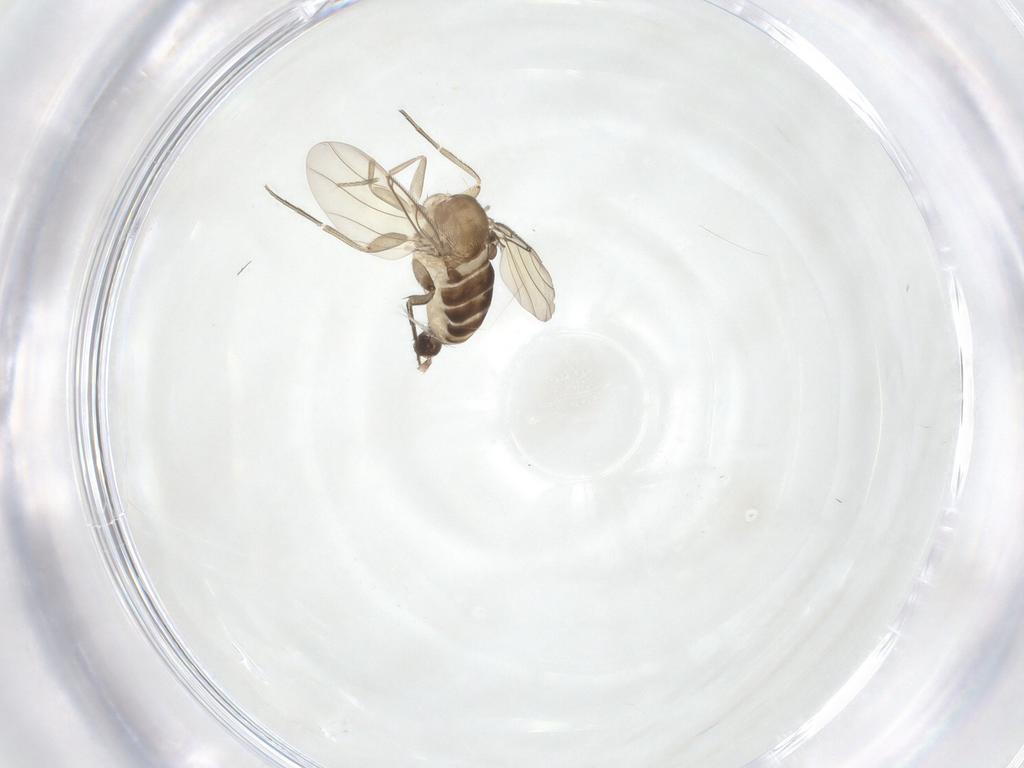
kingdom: Animalia
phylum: Arthropoda
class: Insecta
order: Diptera
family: Phoridae
